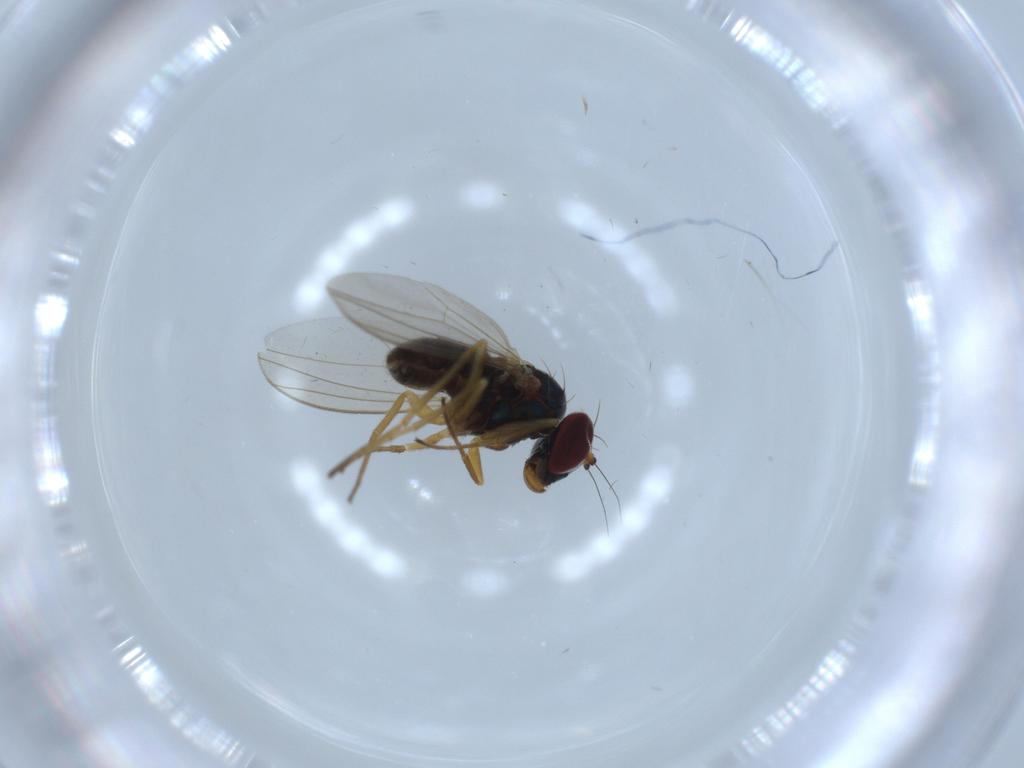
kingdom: Animalia
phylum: Arthropoda
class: Insecta
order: Diptera
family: Dolichopodidae
